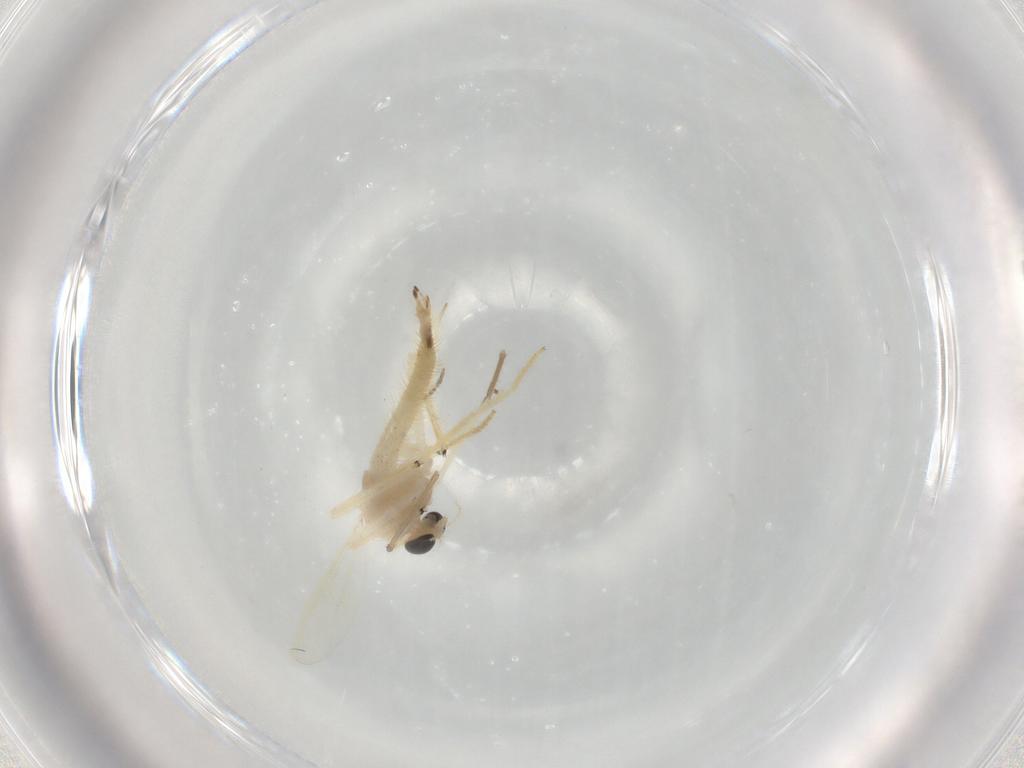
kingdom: Animalia
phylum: Arthropoda
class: Insecta
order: Diptera
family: Chironomidae
